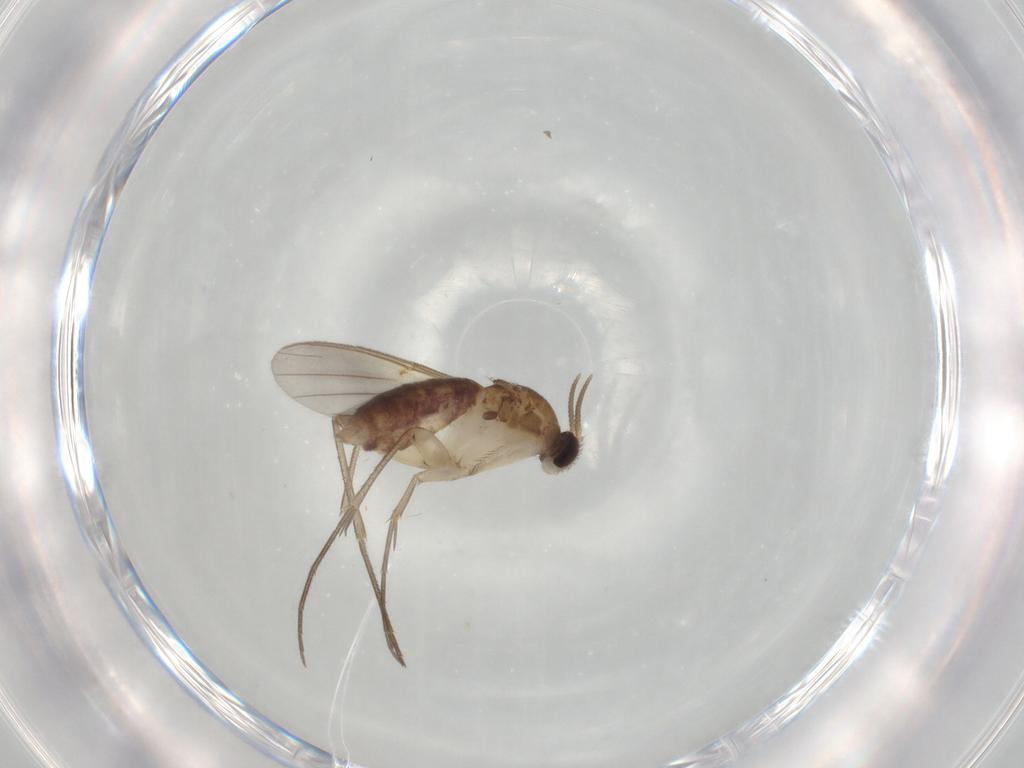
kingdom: Animalia
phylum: Arthropoda
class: Insecta
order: Diptera
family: Mycetophilidae
